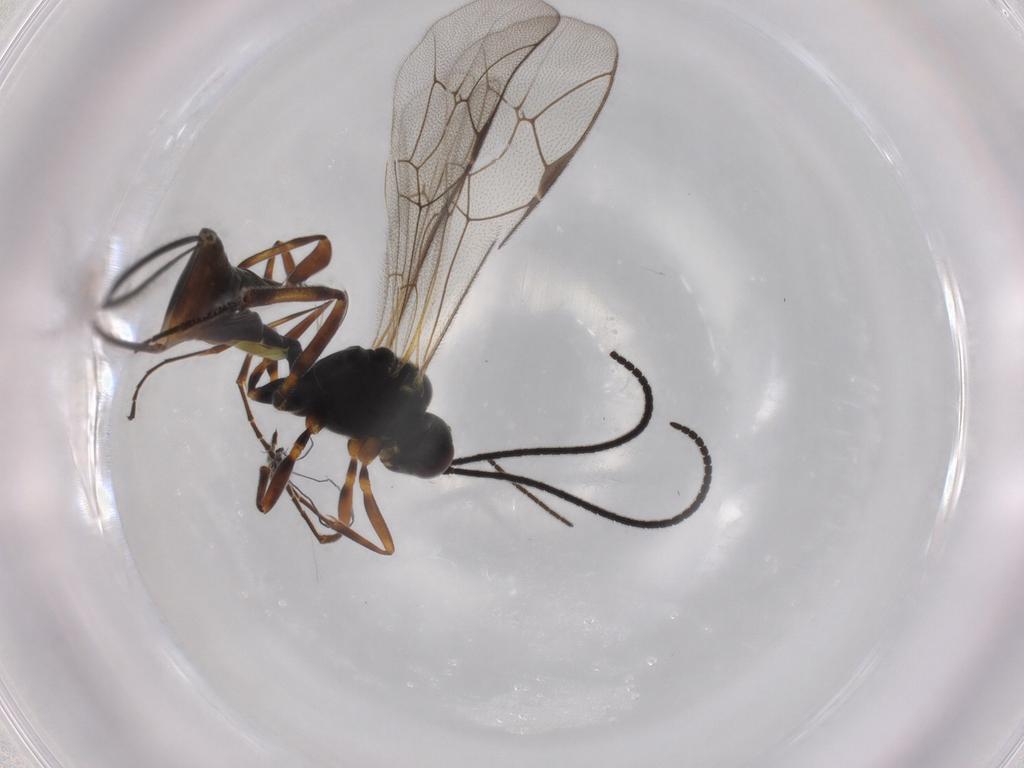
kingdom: Animalia
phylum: Arthropoda
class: Insecta
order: Hymenoptera
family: Ichneumonidae
